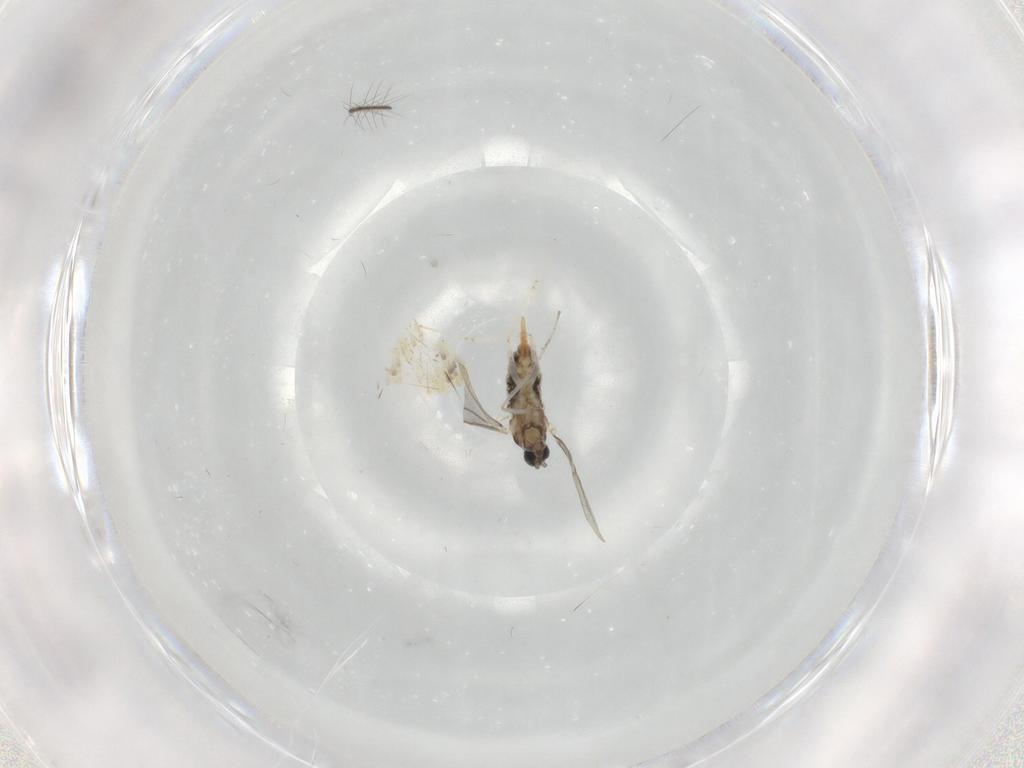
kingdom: Animalia
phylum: Arthropoda
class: Insecta
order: Diptera
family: Cecidomyiidae
